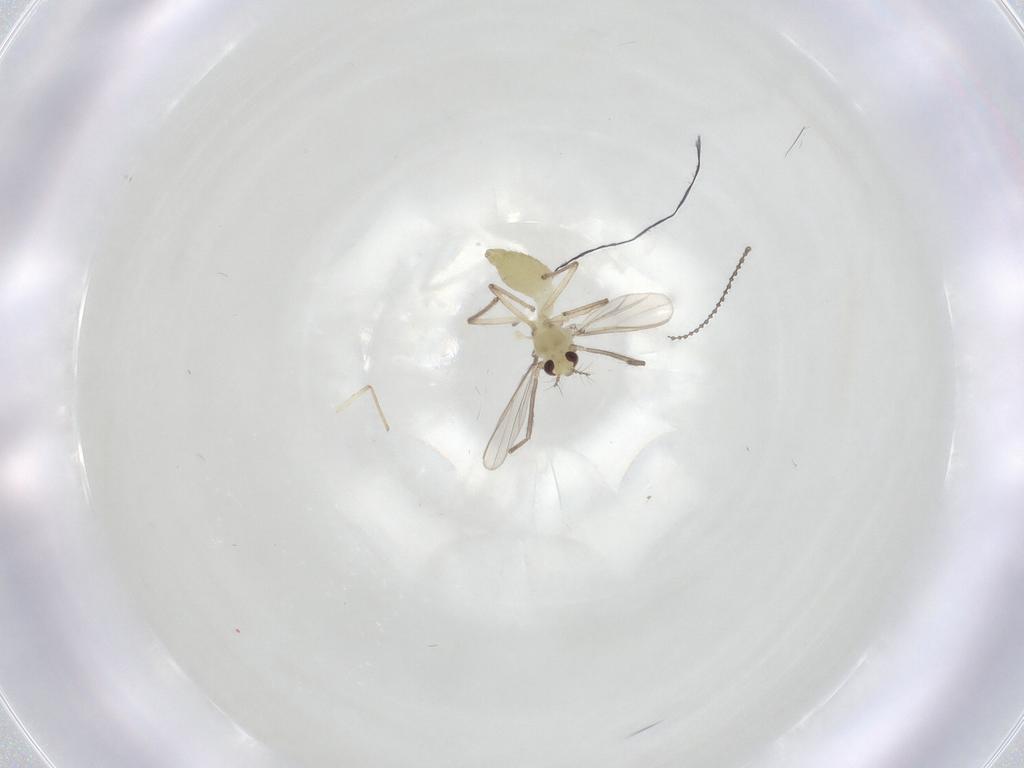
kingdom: Animalia
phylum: Arthropoda
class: Insecta
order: Diptera
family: Chironomidae
